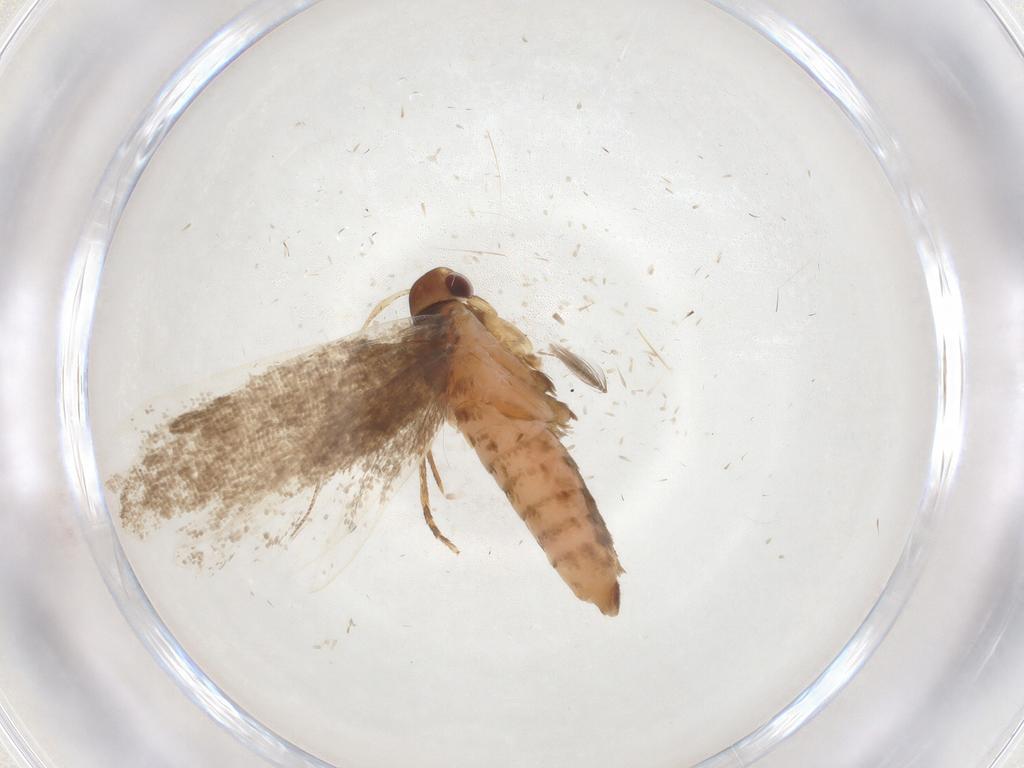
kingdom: Animalia
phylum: Arthropoda
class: Insecta
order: Lepidoptera
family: Gelechiidae
